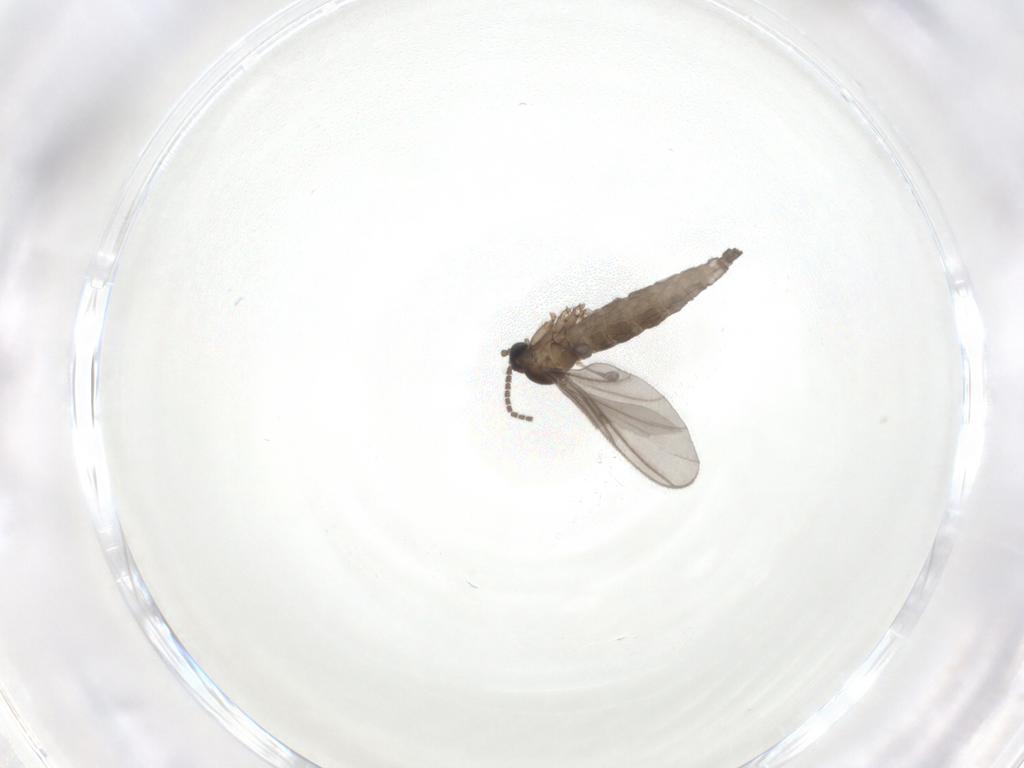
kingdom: Animalia
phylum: Arthropoda
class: Insecta
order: Diptera
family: Sciaridae
